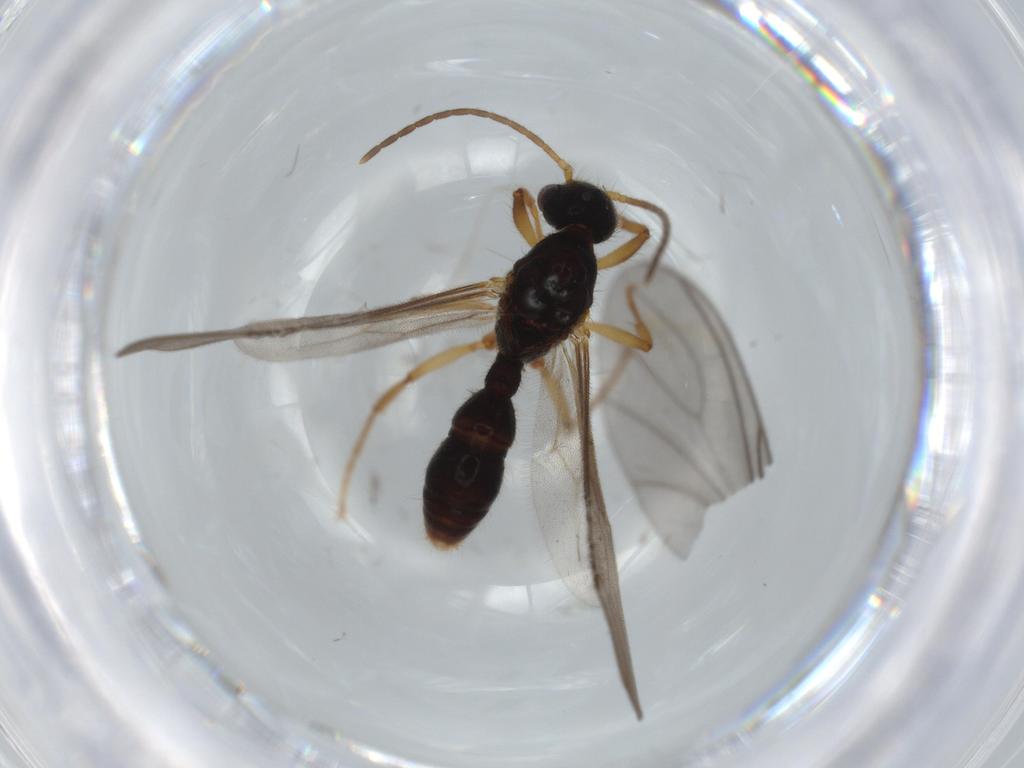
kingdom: Animalia
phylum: Arthropoda
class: Insecta
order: Hymenoptera
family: Formicidae
